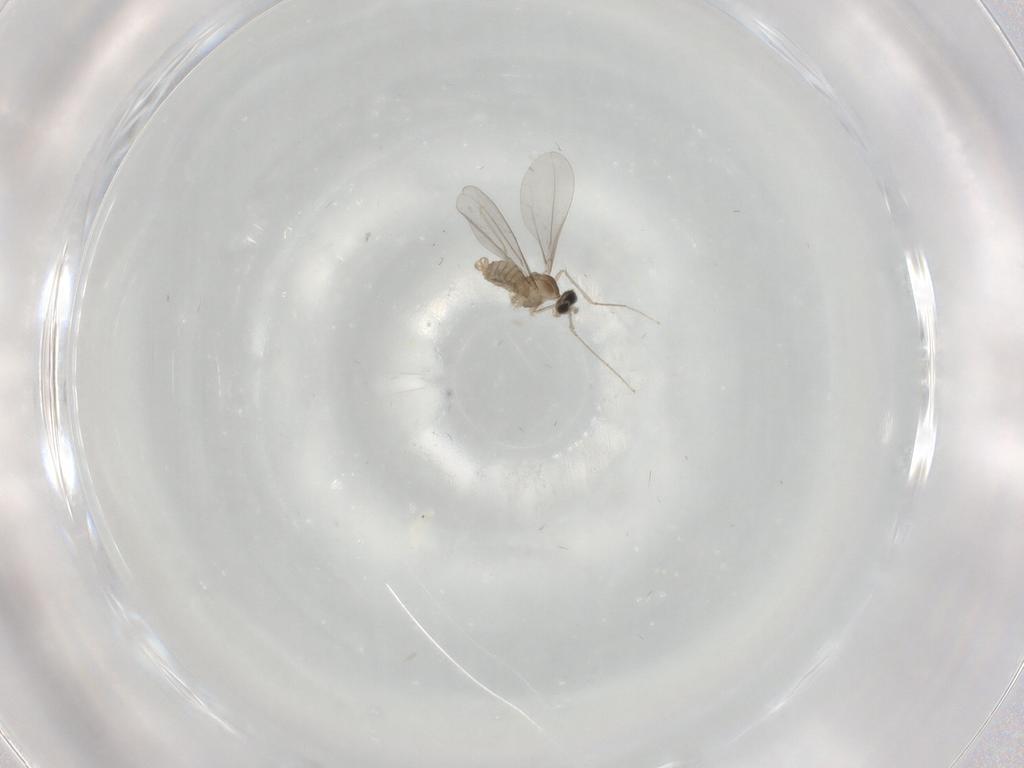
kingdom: Animalia
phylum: Arthropoda
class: Insecta
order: Diptera
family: Cecidomyiidae
